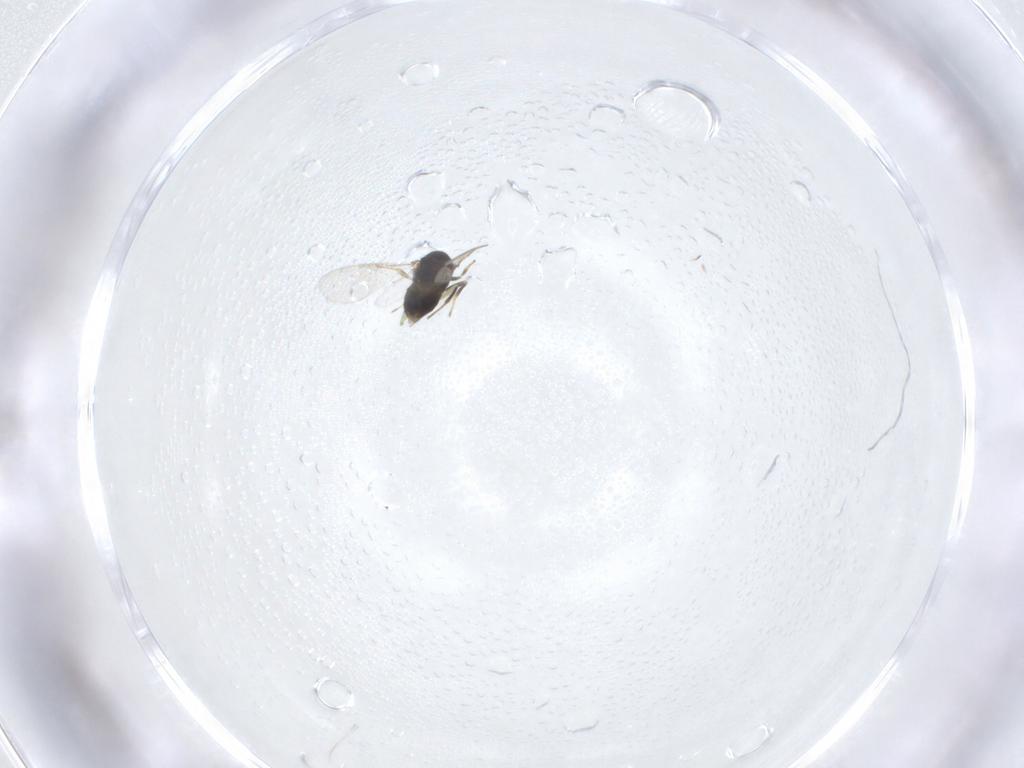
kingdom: Animalia
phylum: Arthropoda
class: Insecta
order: Hymenoptera
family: Aphelinidae
